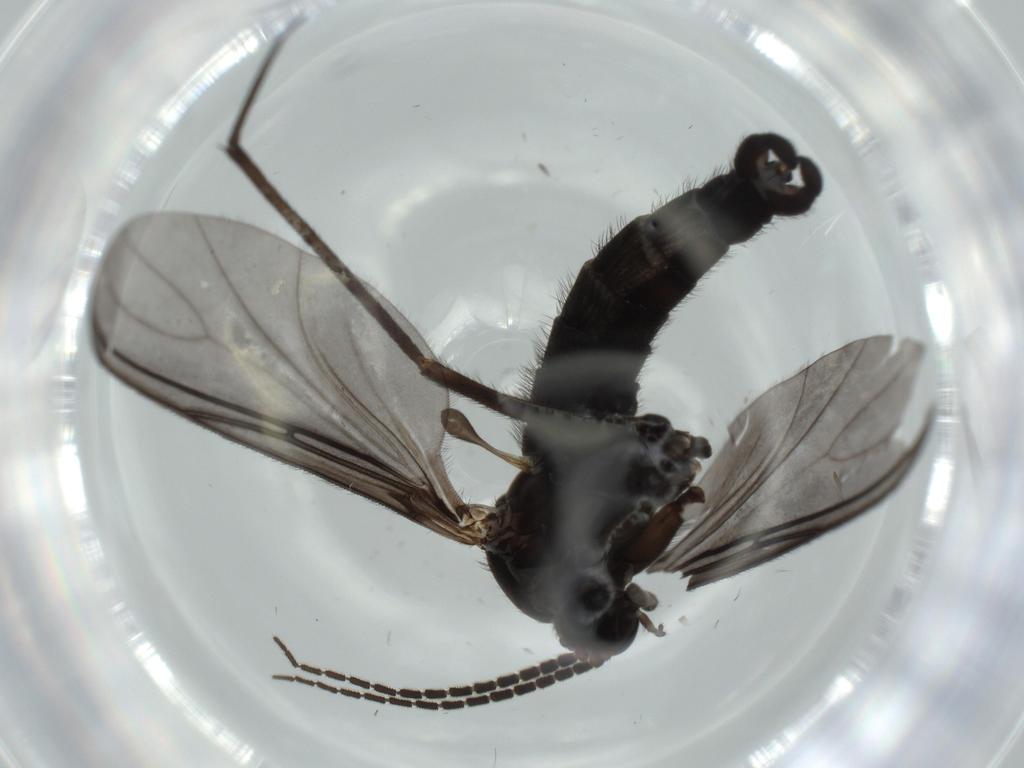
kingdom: Animalia
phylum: Arthropoda
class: Insecta
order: Diptera
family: Sciaridae
